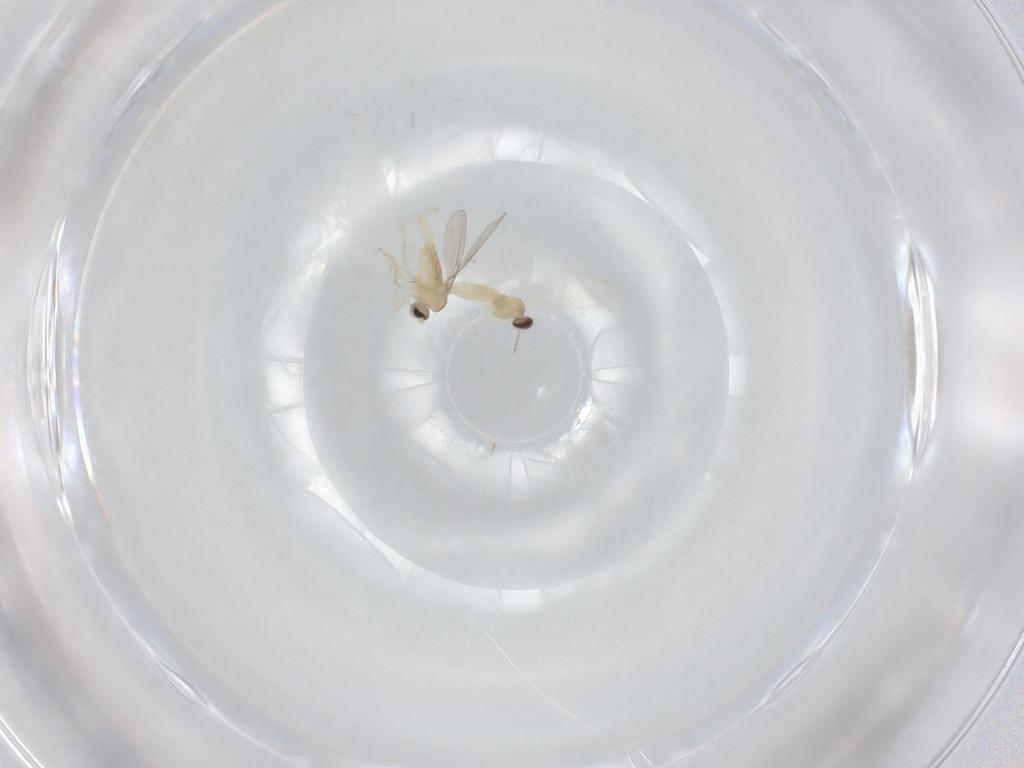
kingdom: Animalia
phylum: Arthropoda
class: Insecta
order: Diptera
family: Cecidomyiidae
